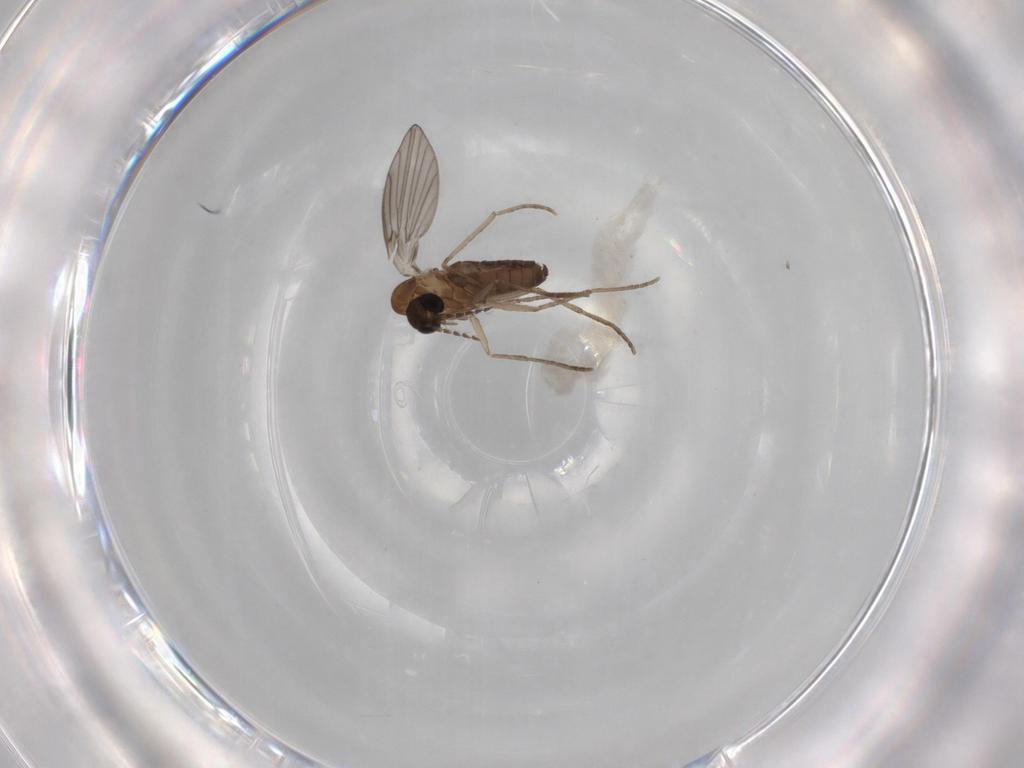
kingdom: Animalia
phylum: Arthropoda
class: Insecta
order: Diptera
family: Psychodidae
